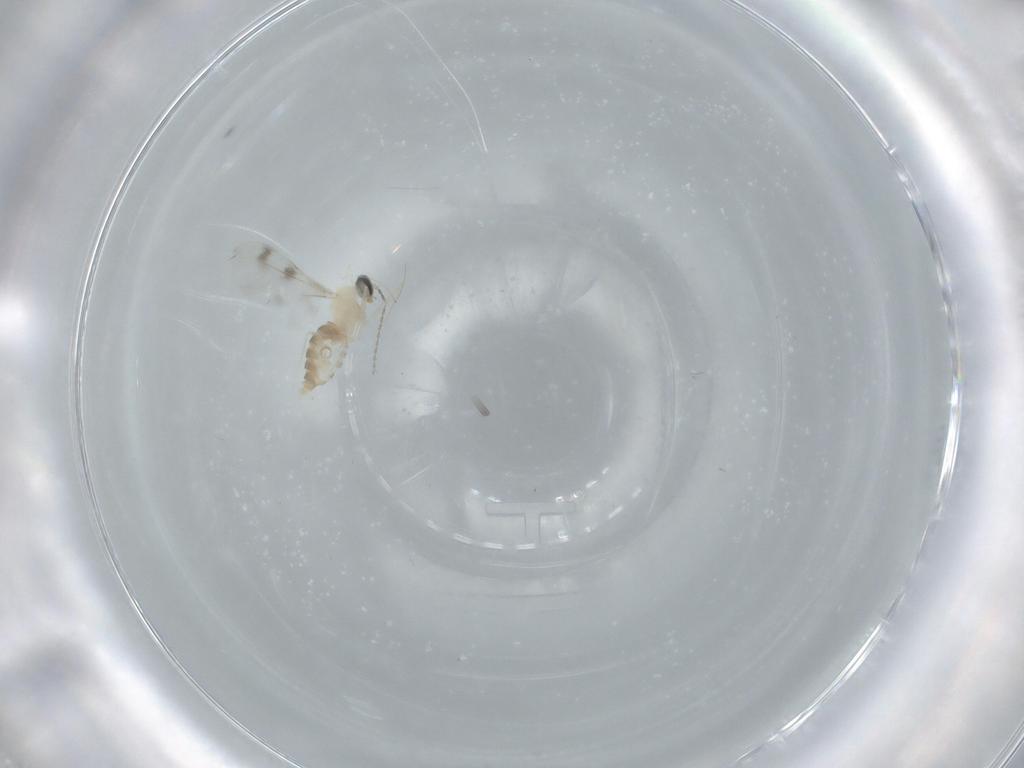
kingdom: Animalia
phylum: Arthropoda
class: Insecta
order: Diptera
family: Cecidomyiidae
